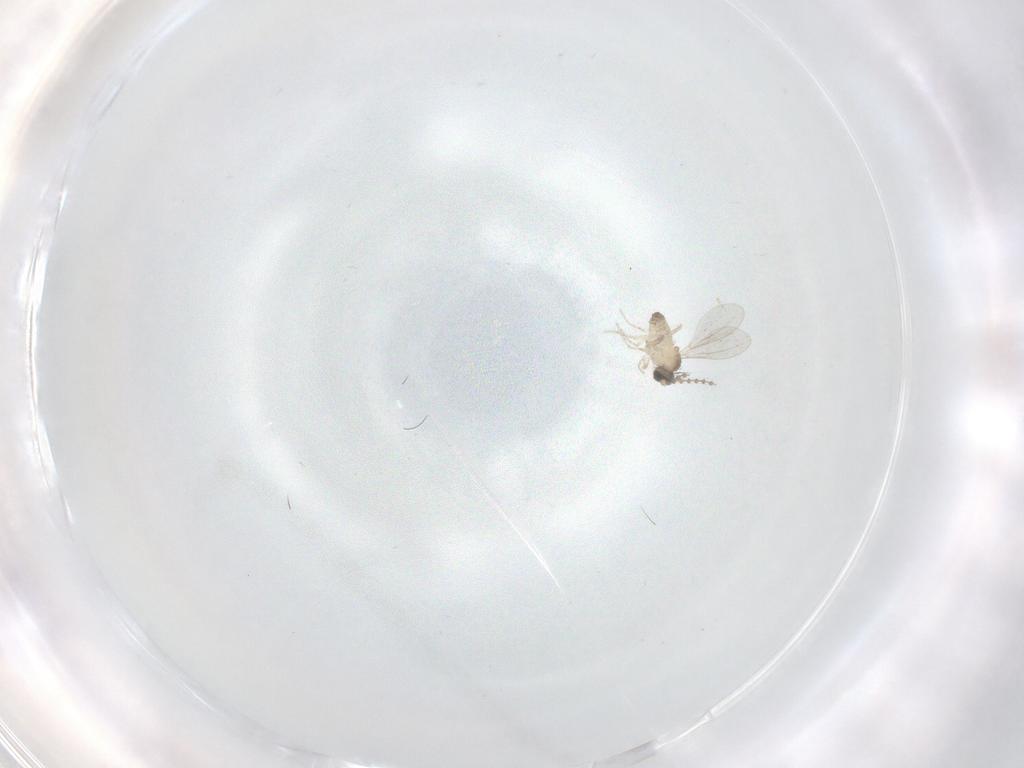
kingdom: Animalia
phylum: Arthropoda
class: Insecta
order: Diptera
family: Cecidomyiidae
